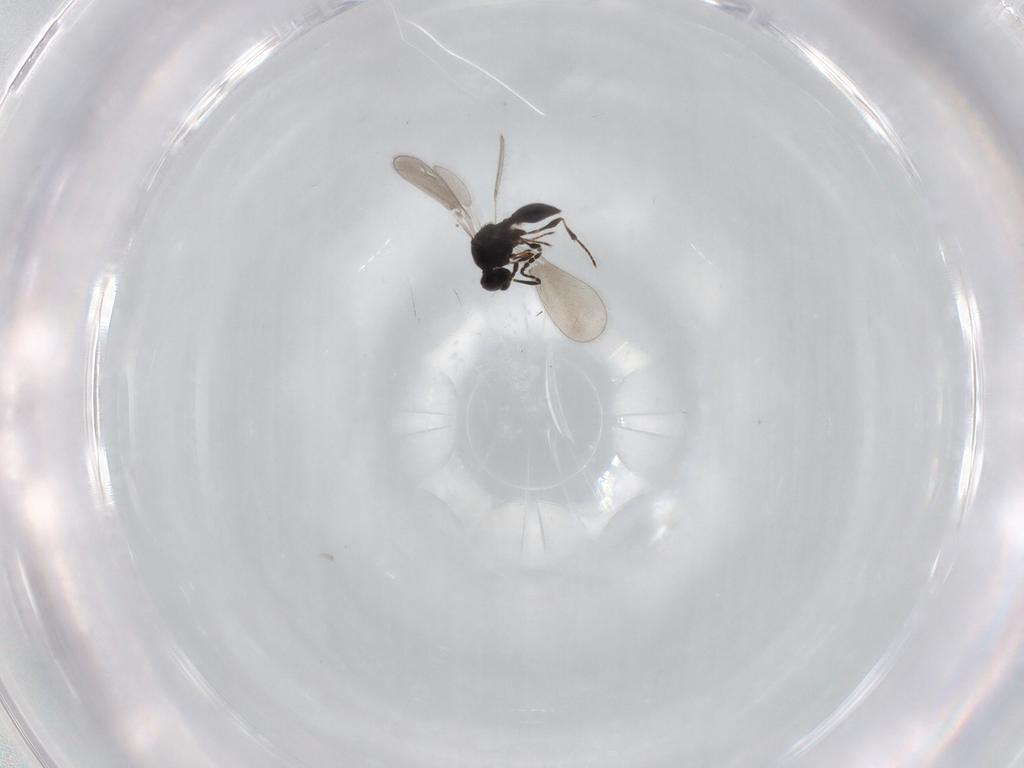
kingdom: Animalia
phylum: Arthropoda
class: Insecta
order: Hymenoptera
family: Platygastridae
